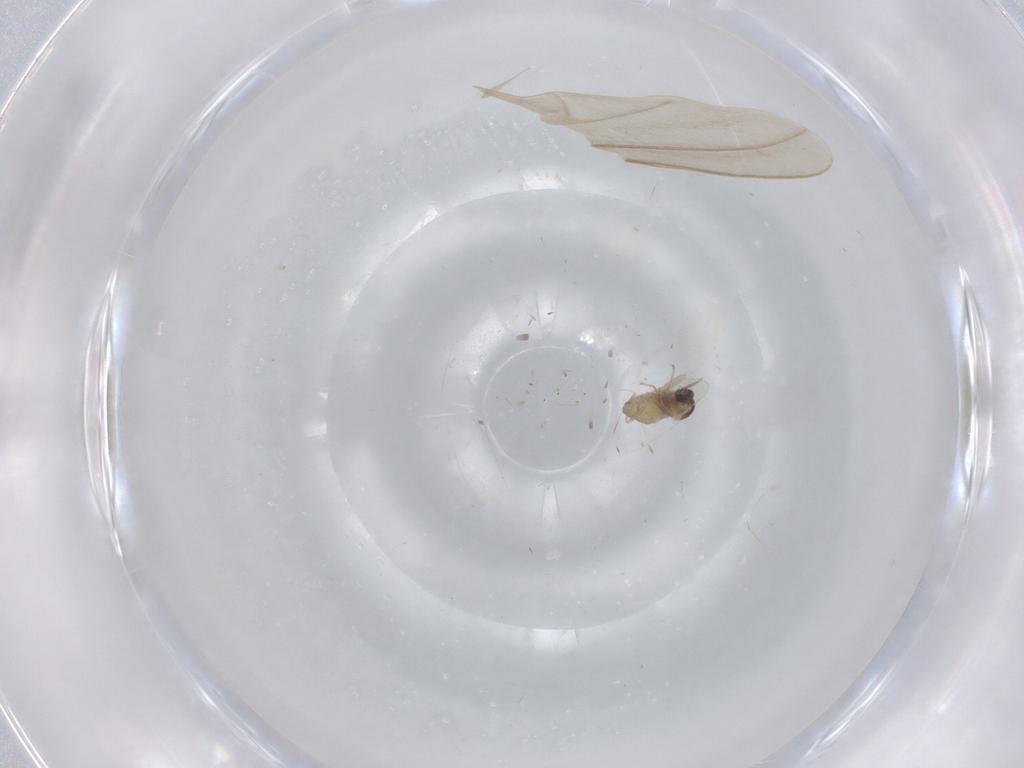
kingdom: Animalia
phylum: Arthropoda
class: Insecta
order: Diptera
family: Cecidomyiidae
